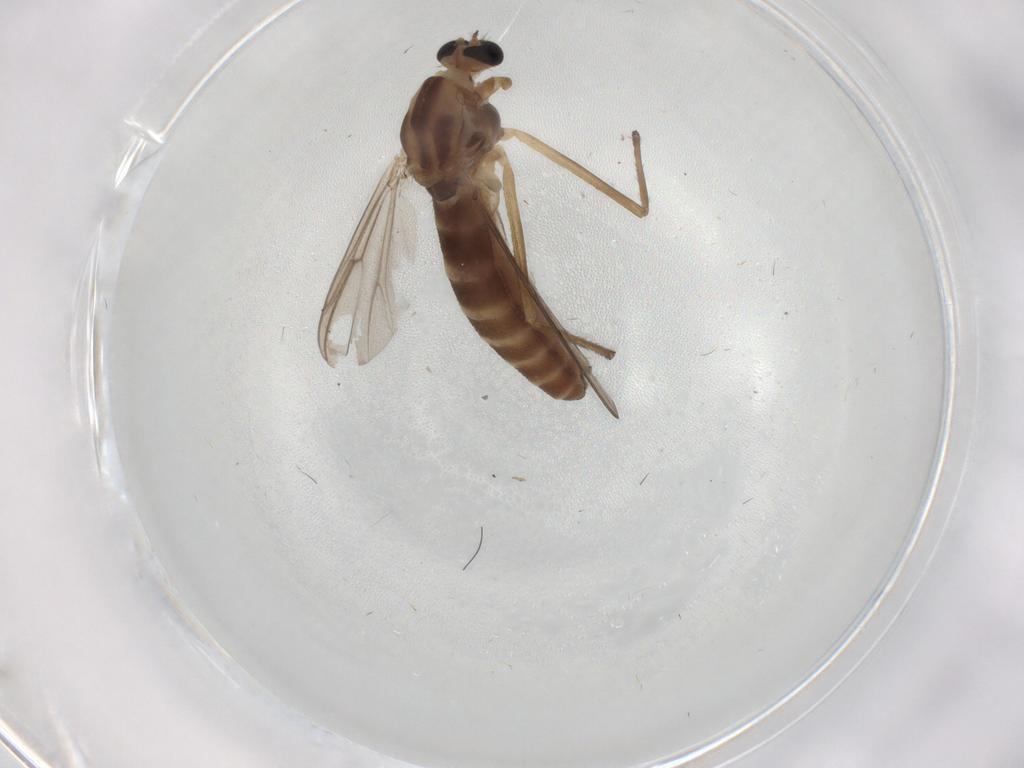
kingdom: Animalia
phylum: Arthropoda
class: Insecta
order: Diptera
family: Chironomidae
